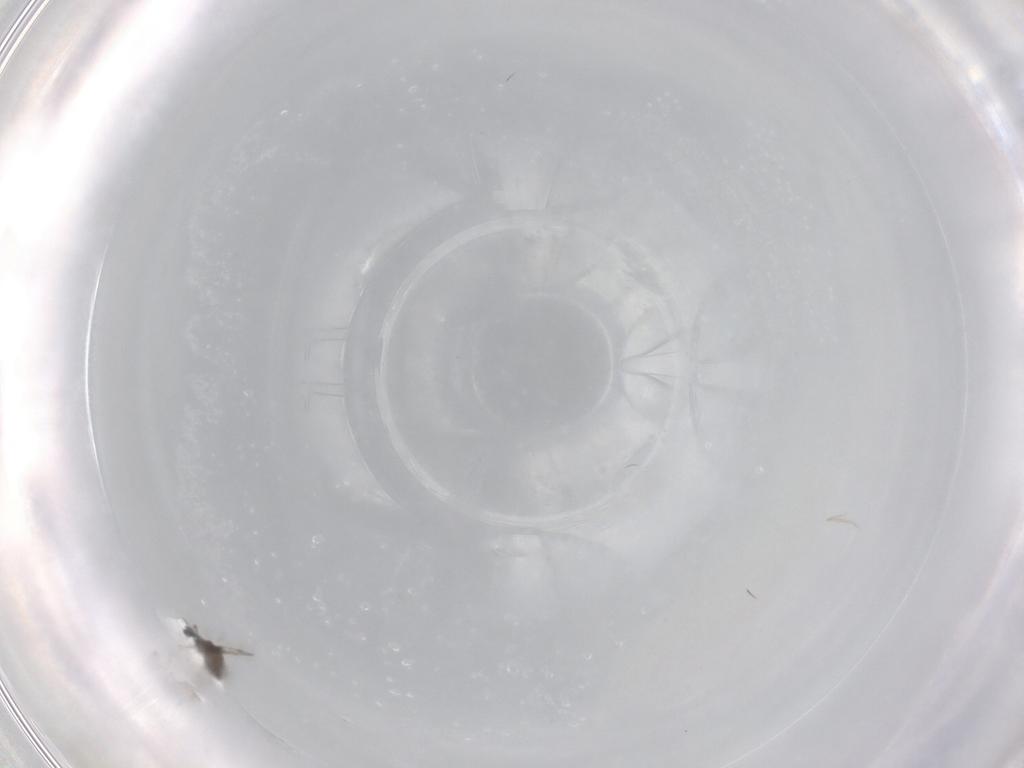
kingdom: Animalia
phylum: Arthropoda
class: Insecta
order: Diptera
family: Cecidomyiidae
